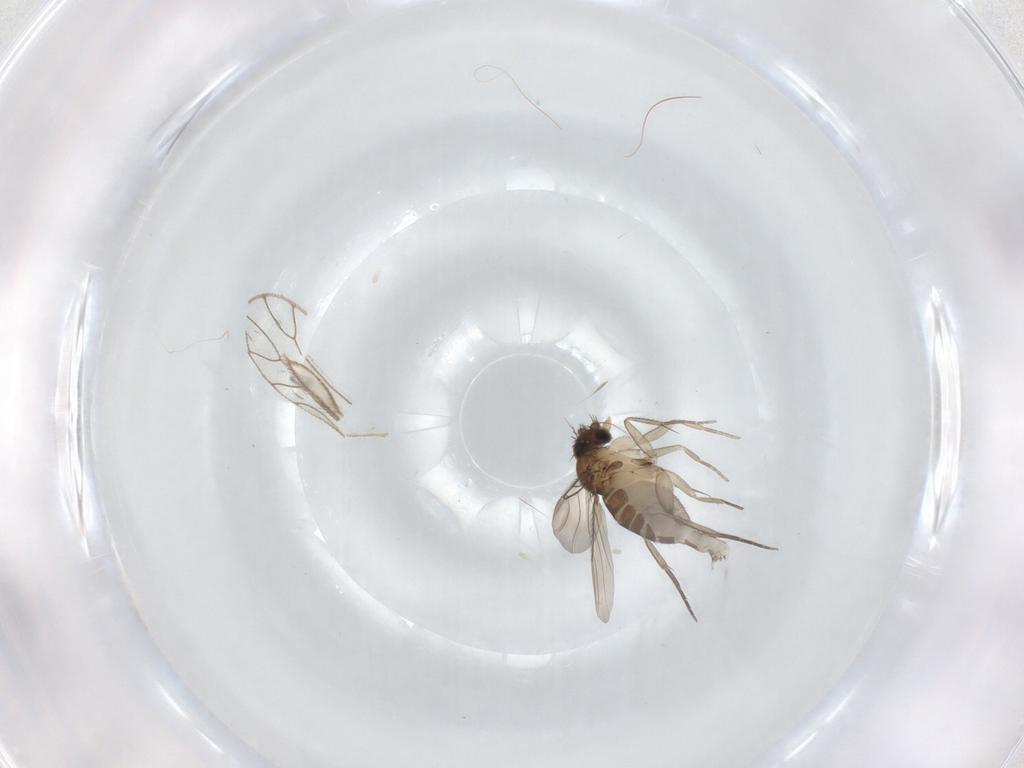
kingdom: Animalia
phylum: Arthropoda
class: Insecta
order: Diptera
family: Phoridae
